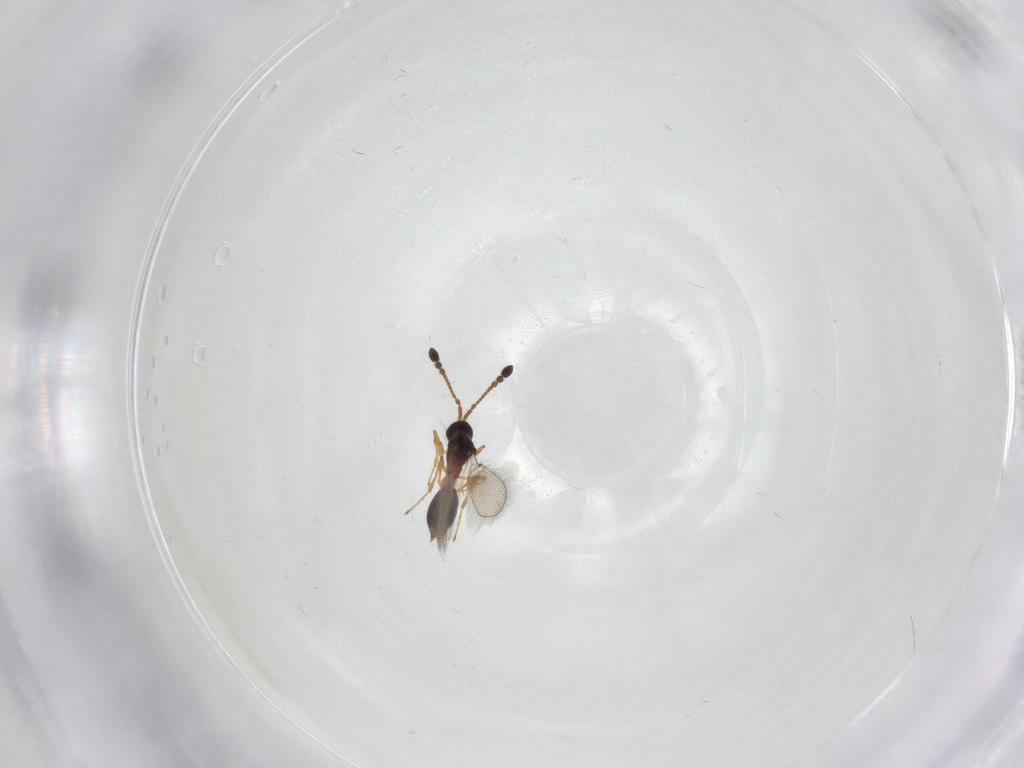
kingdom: Animalia
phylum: Arthropoda
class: Insecta
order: Hymenoptera
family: Diapriidae
